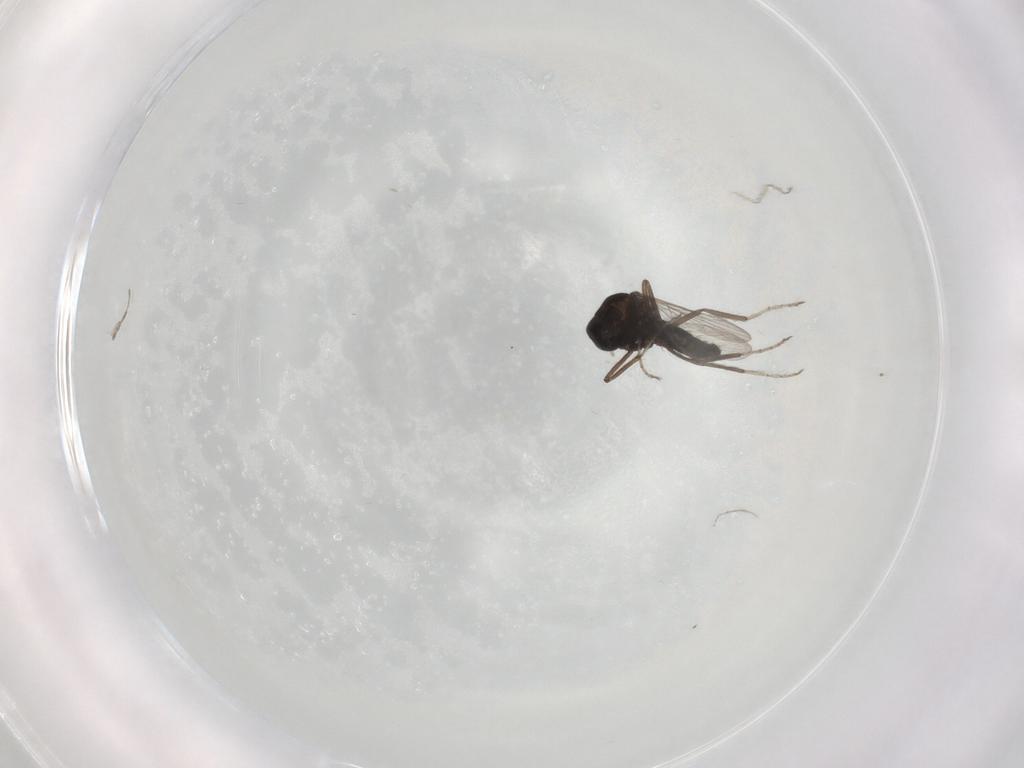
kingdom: Animalia
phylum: Arthropoda
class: Insecta
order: Diptera
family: Ceratopogonidae
